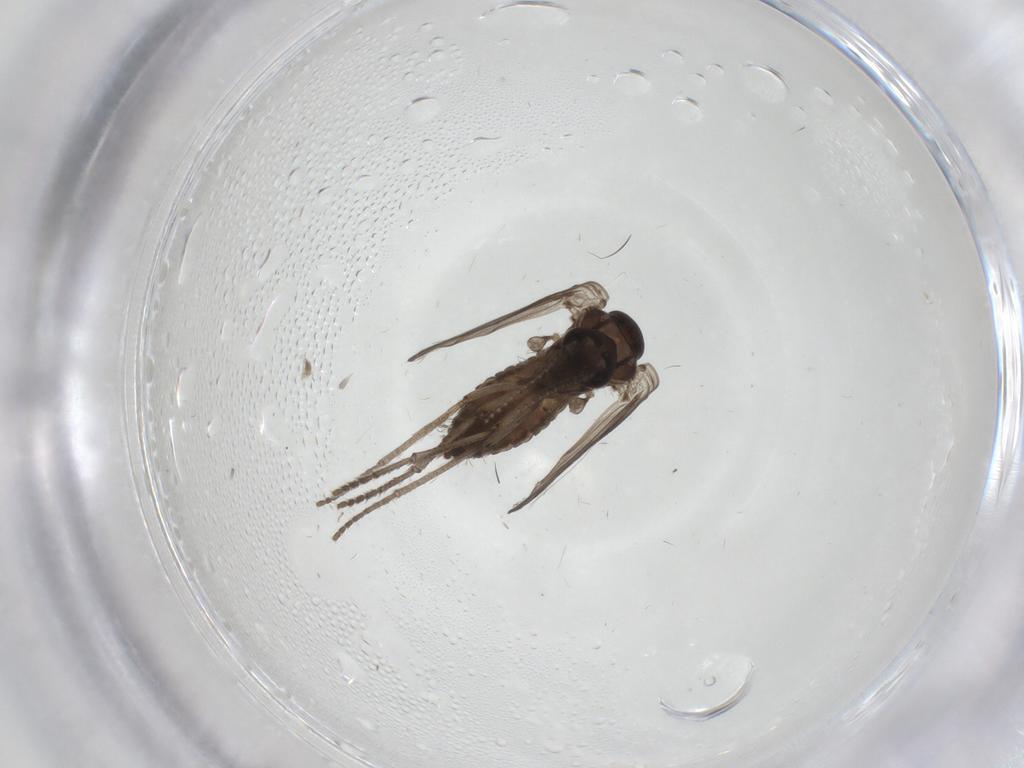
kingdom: Animalia
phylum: Arthropoda
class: Insecta
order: Diptera
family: Psychodidae
